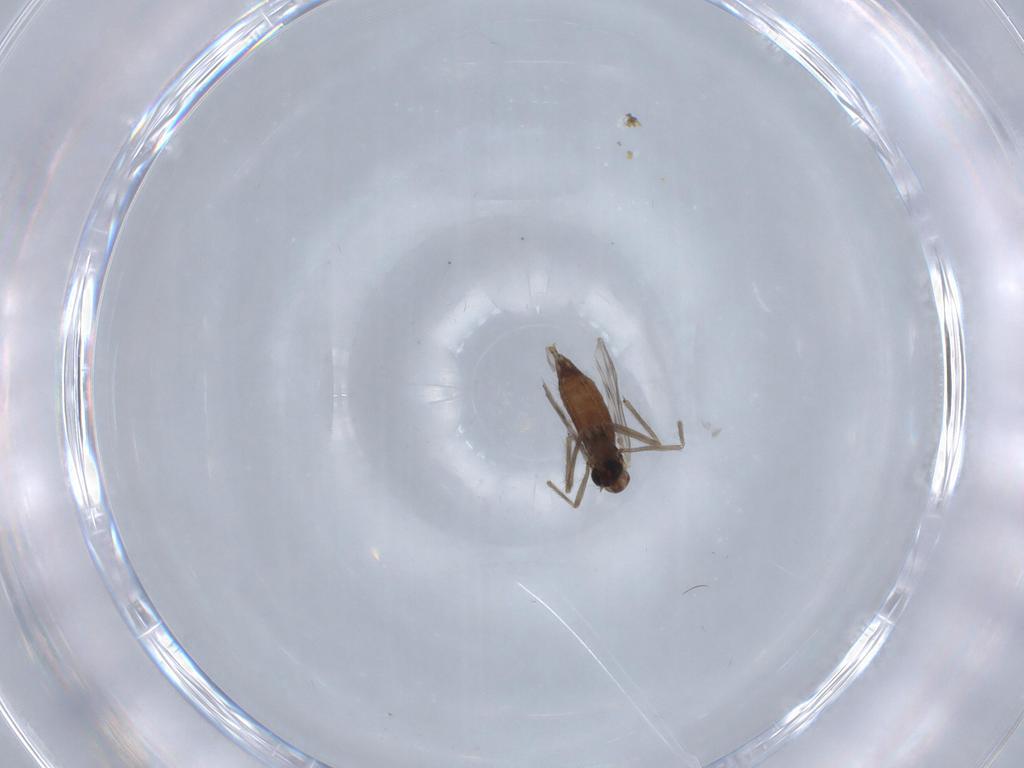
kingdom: Animalia
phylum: Arthropoda
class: Insecta
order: Diptera
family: Chironomidae
